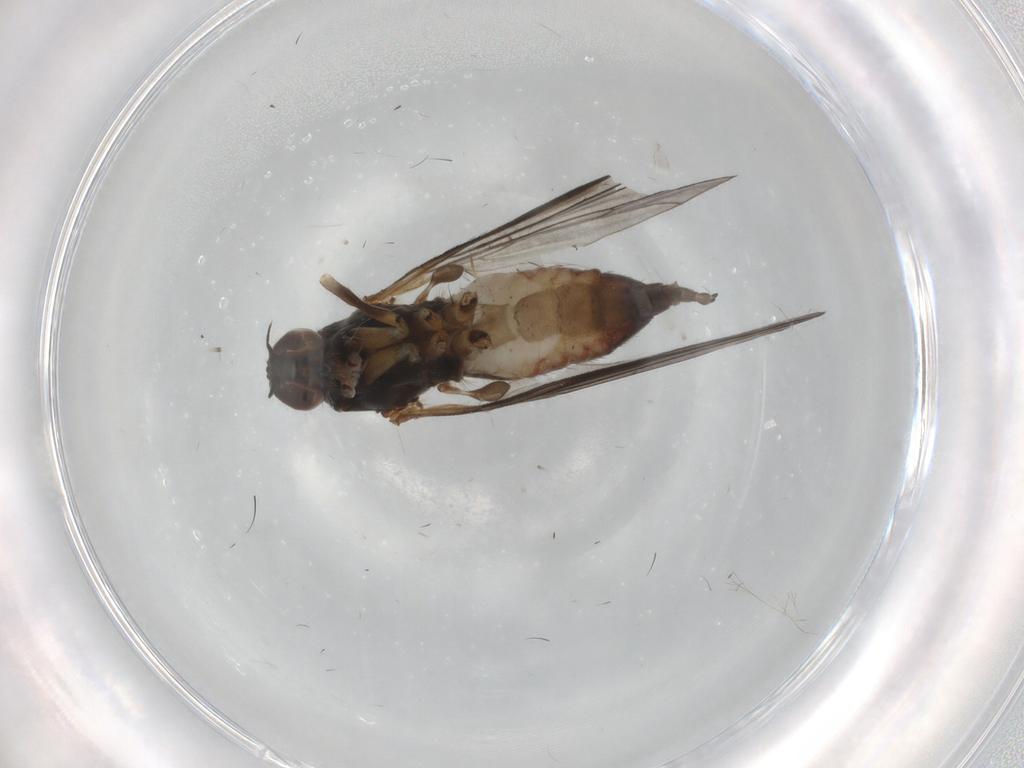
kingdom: Animalia
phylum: Arthropoda
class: Insecta
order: Diptera
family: Empididae
